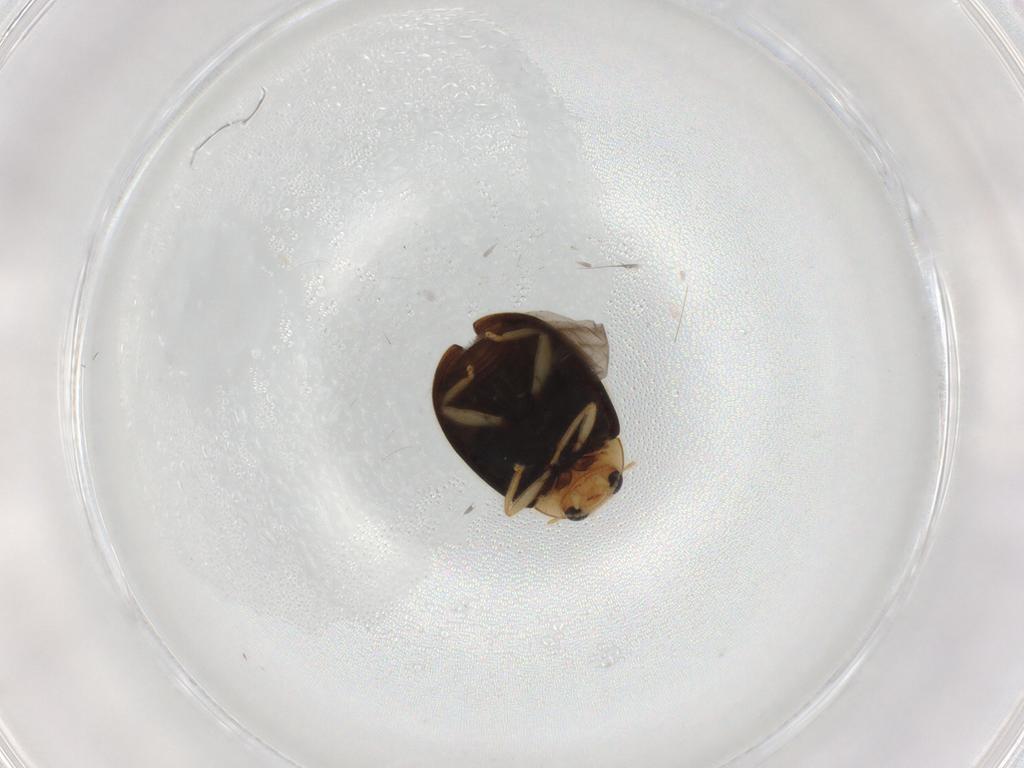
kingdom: Animalia
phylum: Arthropoda
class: Insecta
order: Coleoptera
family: Coccinellidae
